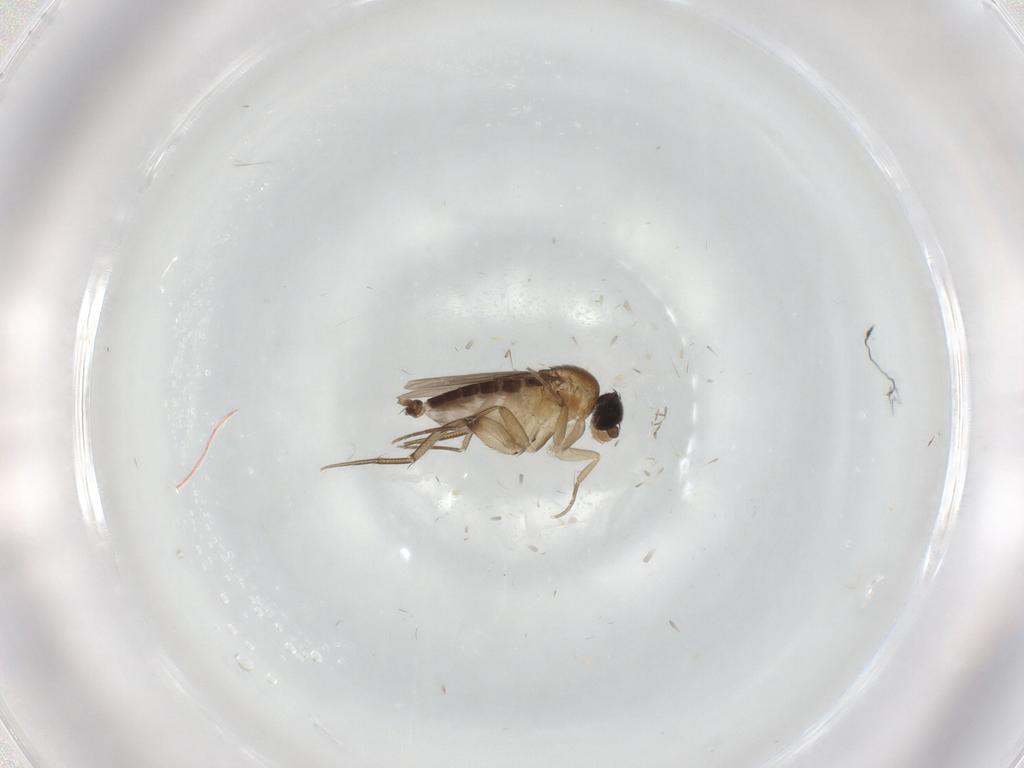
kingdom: Animalia
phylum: Arthropoda
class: Insecta
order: Diptera
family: Phoridae
